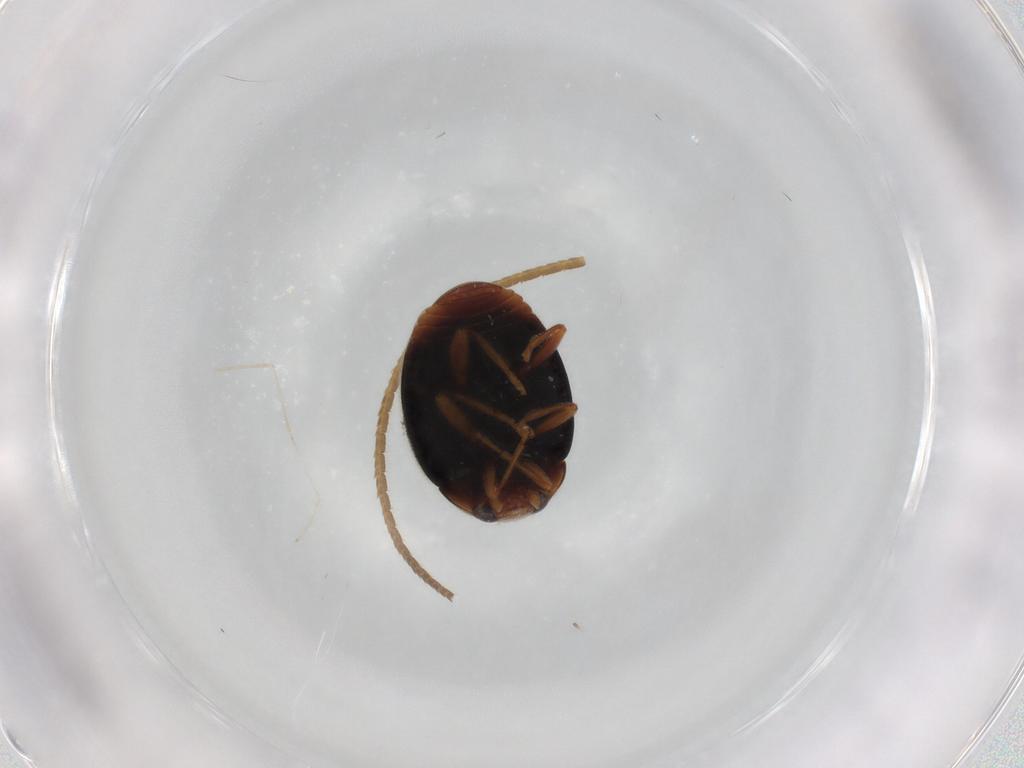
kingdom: Animalia
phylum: Arthropoda
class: Insecta
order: Coleoptera
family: Coccinellidae
